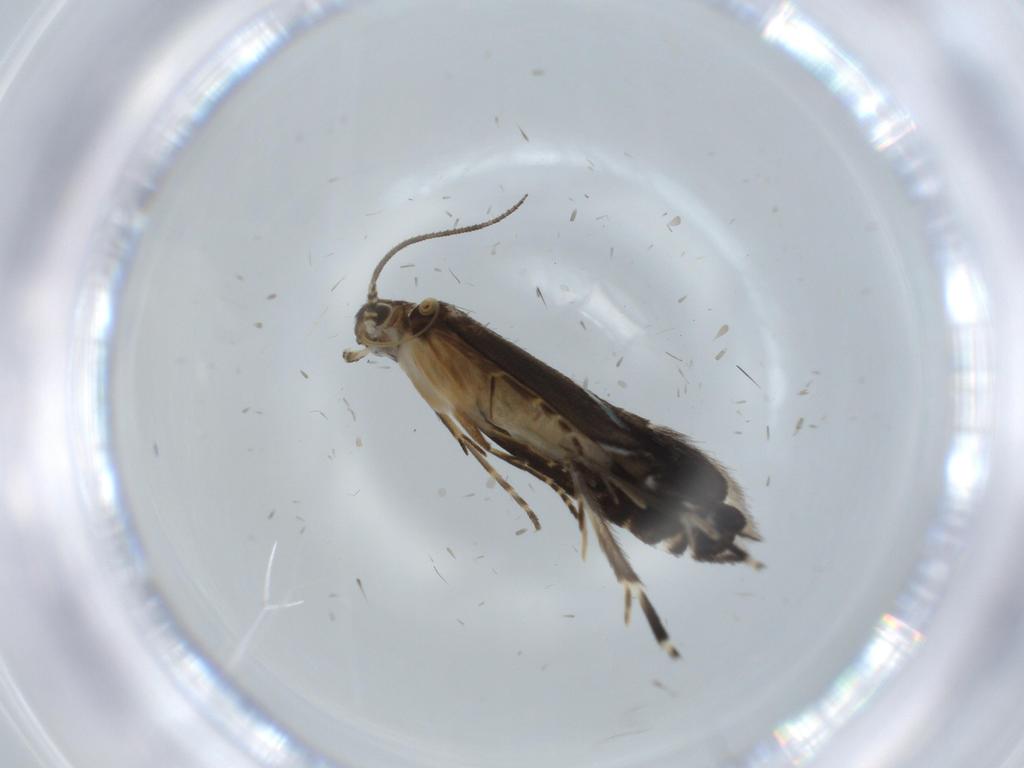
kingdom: Animalia
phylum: Arthropoda
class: Insecta
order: Lepidoptera
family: Glyphipterigidae
